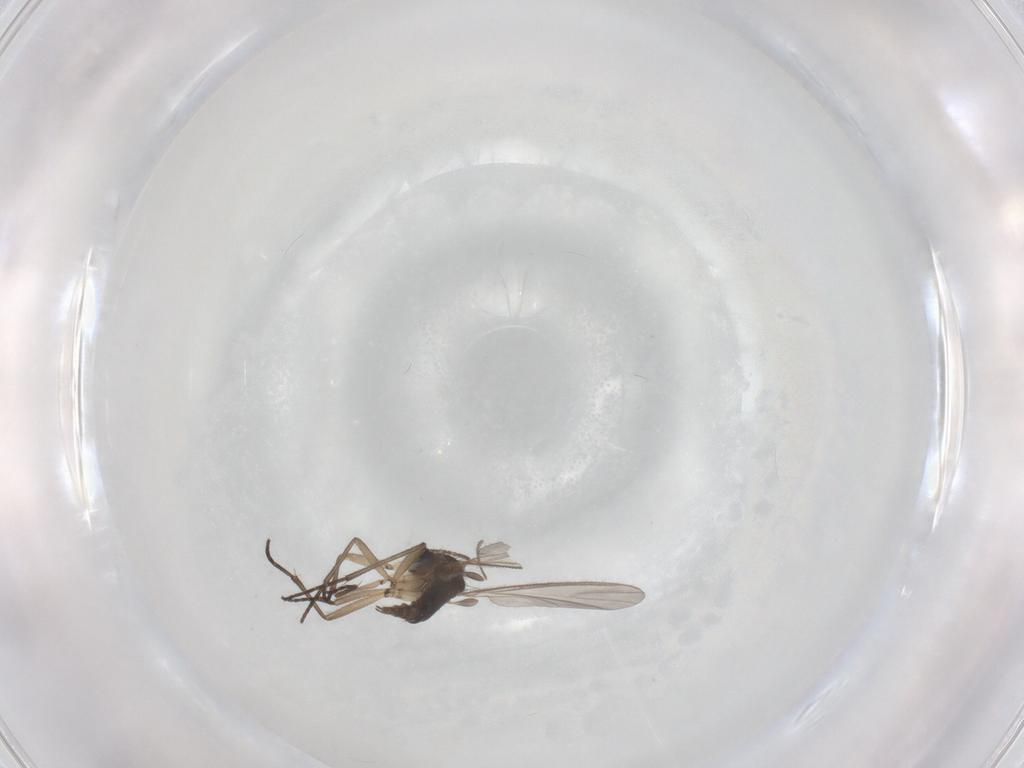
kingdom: Animalia
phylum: Arthropoda
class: Insecta
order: Diptera
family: Sciaridae
